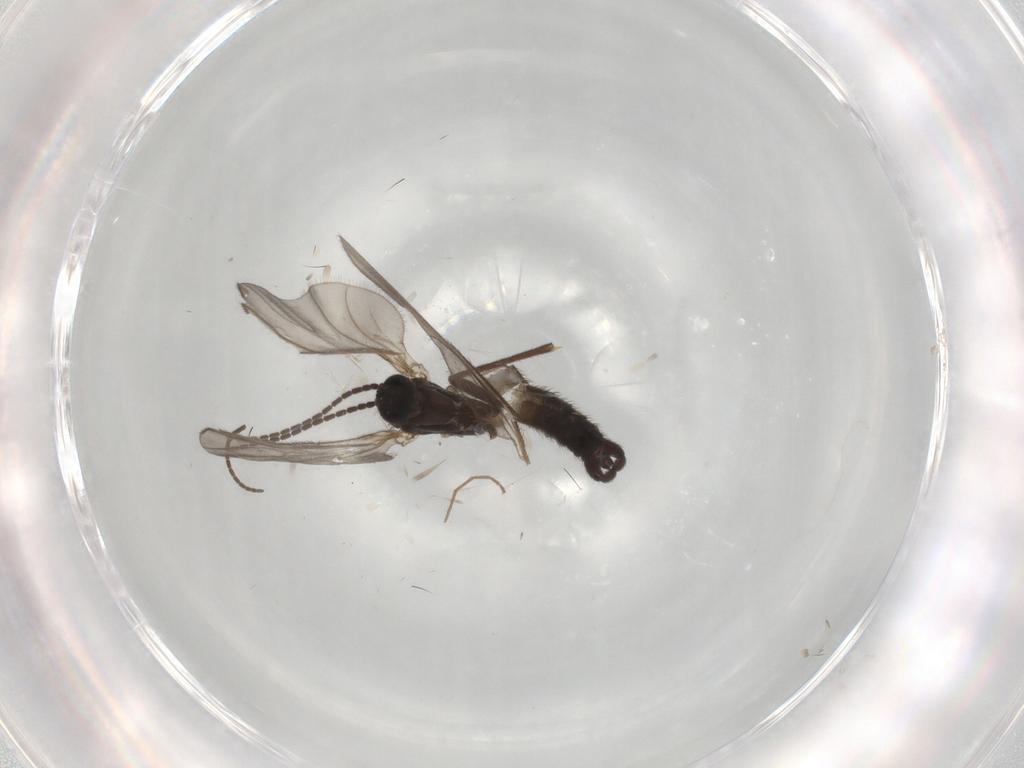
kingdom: Animalia
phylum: Arthropoda
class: Insecta
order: Diptera
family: Sciaridae
